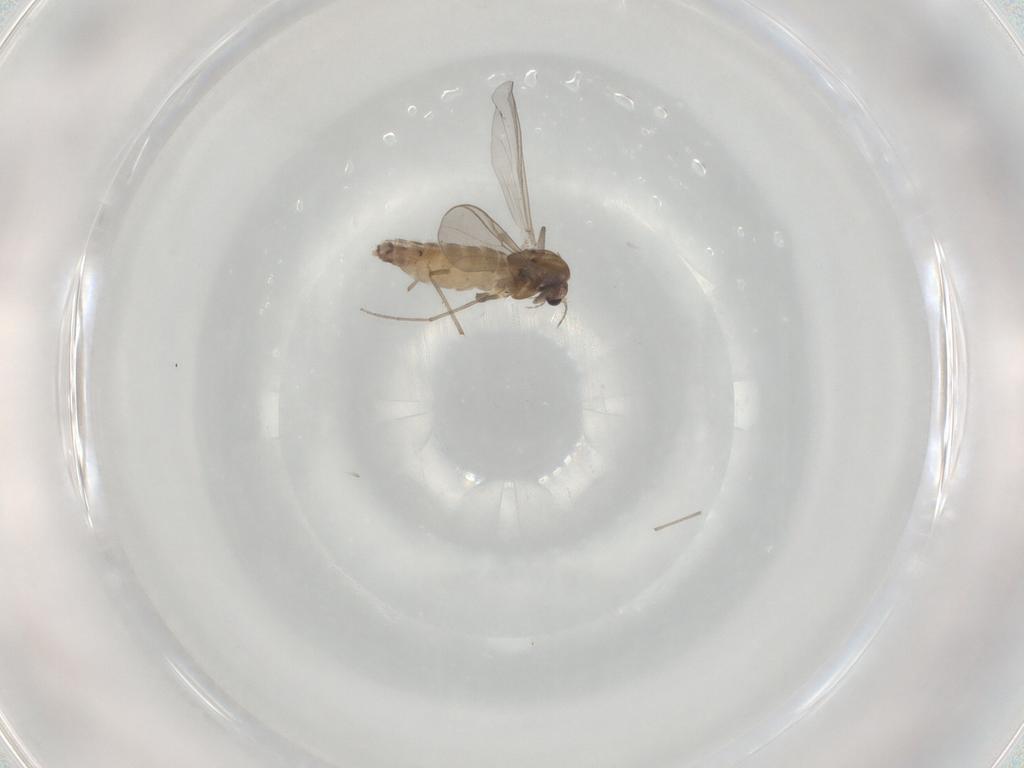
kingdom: Animalia
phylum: Arthropoda
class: Insecta
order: Diptera
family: Chironomidae
